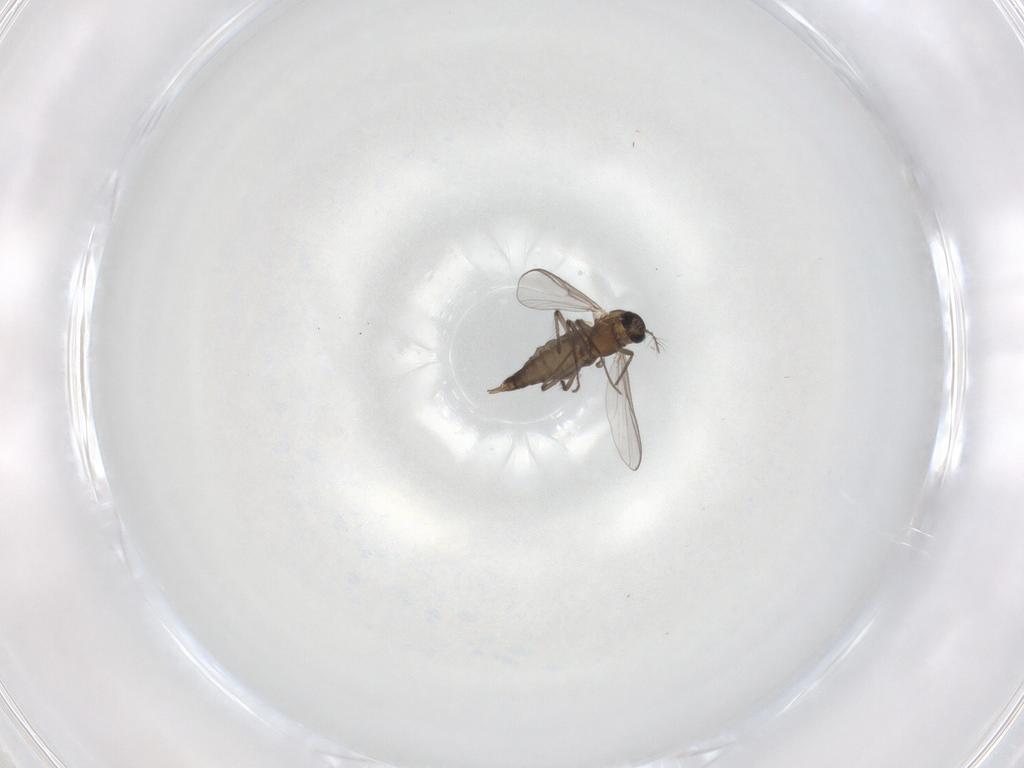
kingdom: Animalia
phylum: Arthropoda
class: Insecta
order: Diptera
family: Chironomidae
